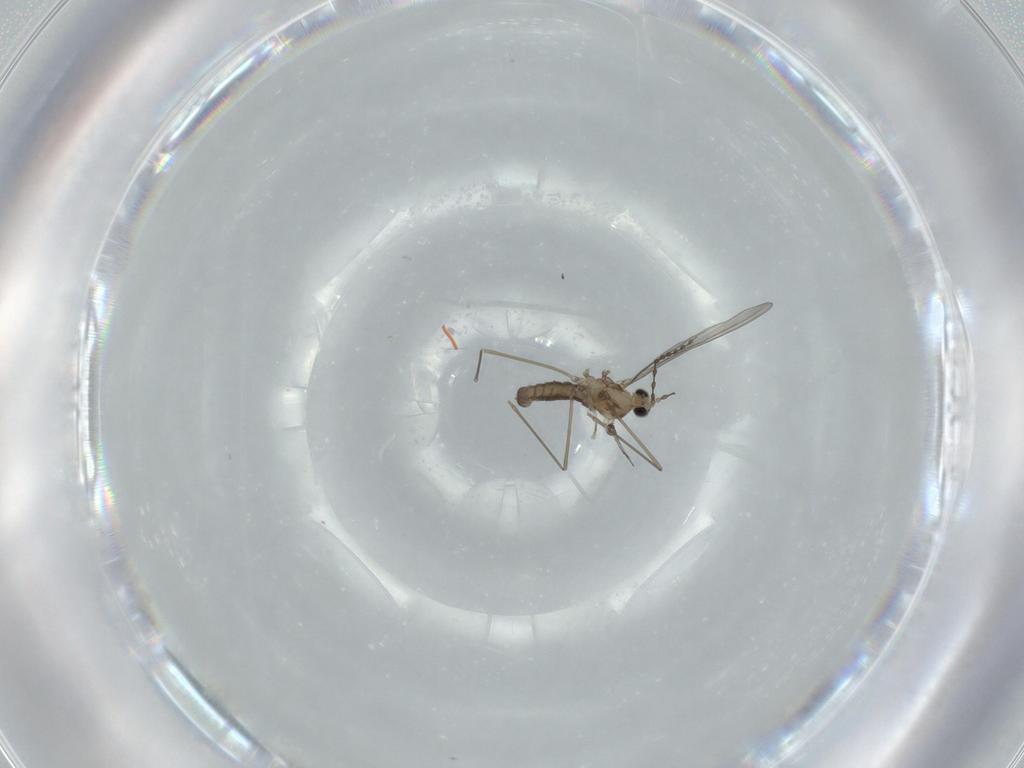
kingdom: Animalia
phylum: Arthropoda
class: Insecta
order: Diptera
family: Cecidomyiidae
